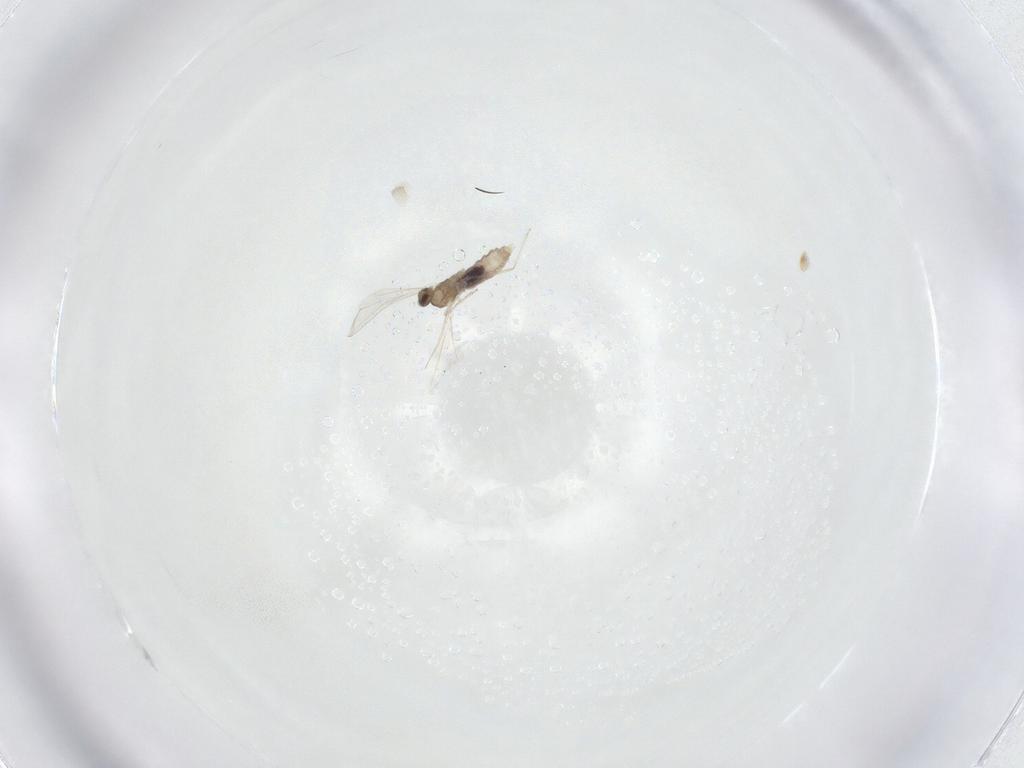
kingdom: Animalia
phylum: Arthropoda
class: Insecta
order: Diptera
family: Cecidomyiidae
